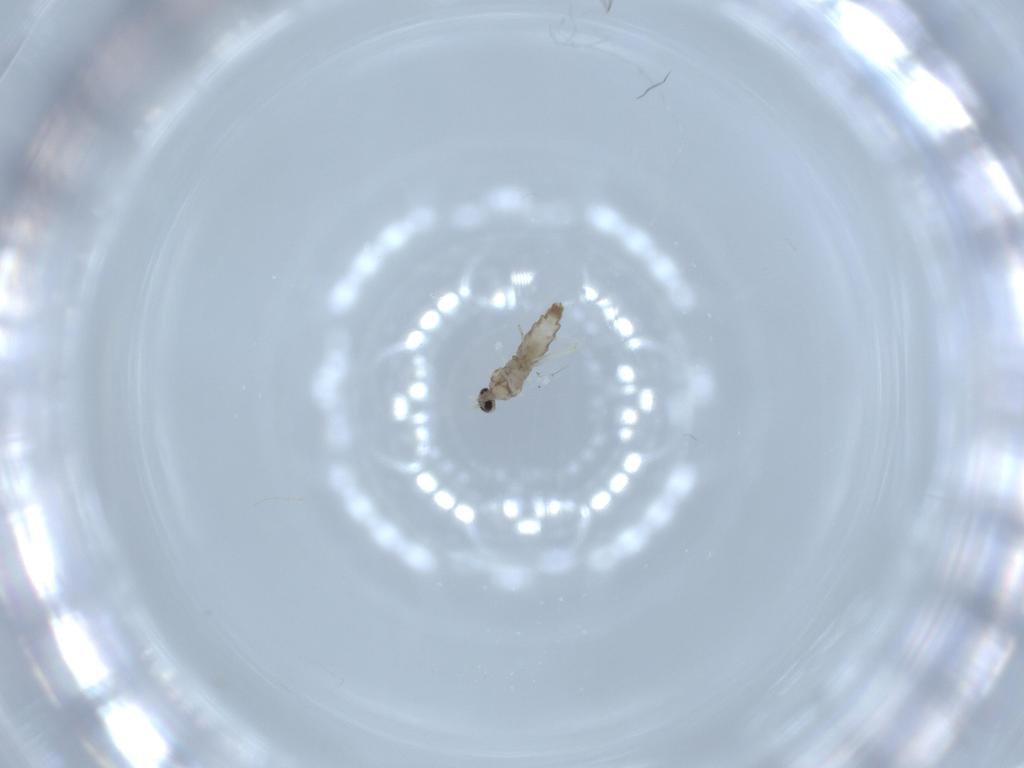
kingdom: Animalia
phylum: Arthropoda
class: Insecta
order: Diptera
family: Cecidomyiidae
